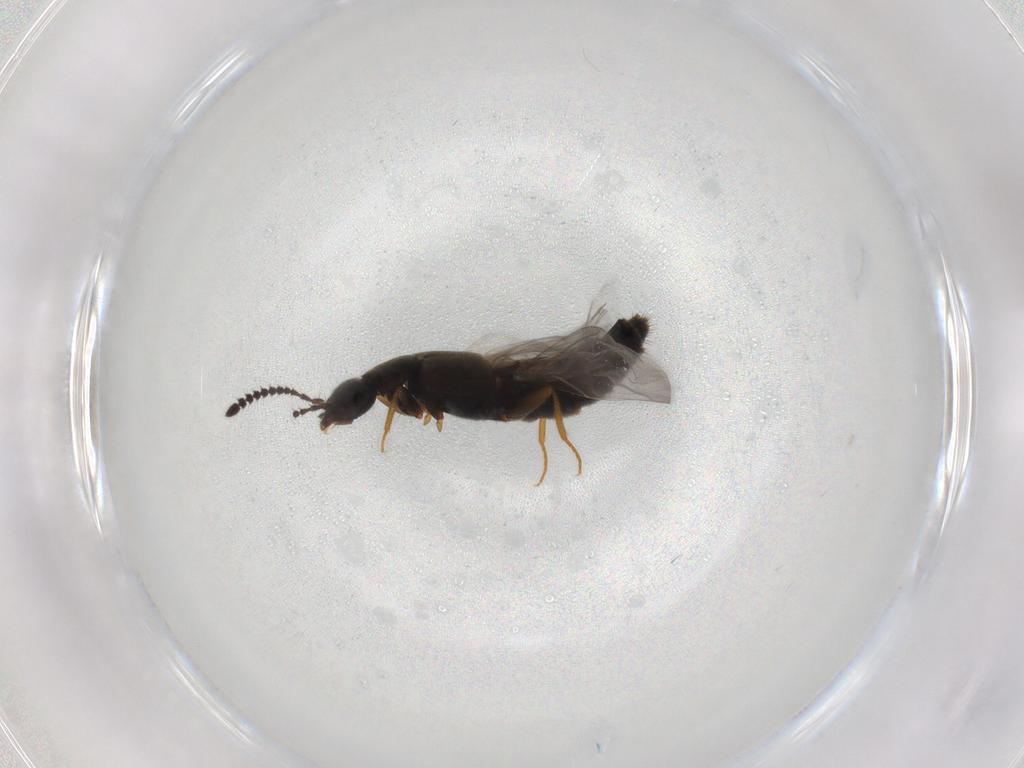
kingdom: Animalia
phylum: Arthropoda
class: Insecta
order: Coleoptera
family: Staphylinidae
